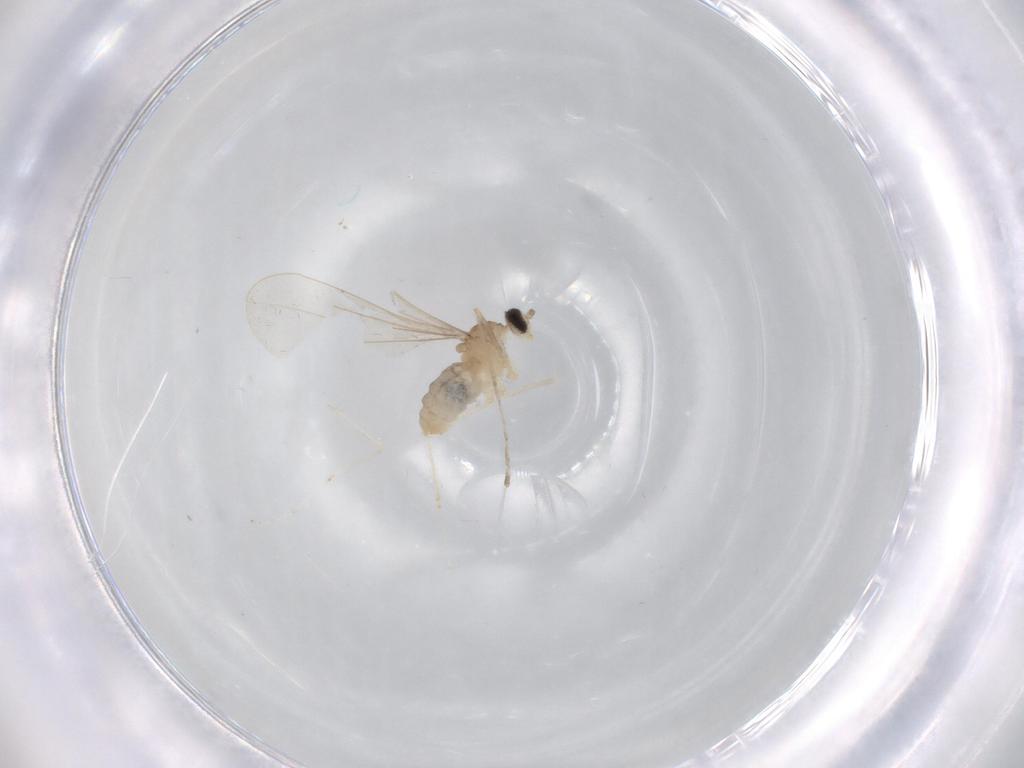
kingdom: Animalia
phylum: Arthropoda
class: Insecta
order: Diptera
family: Cecidomyiidae
